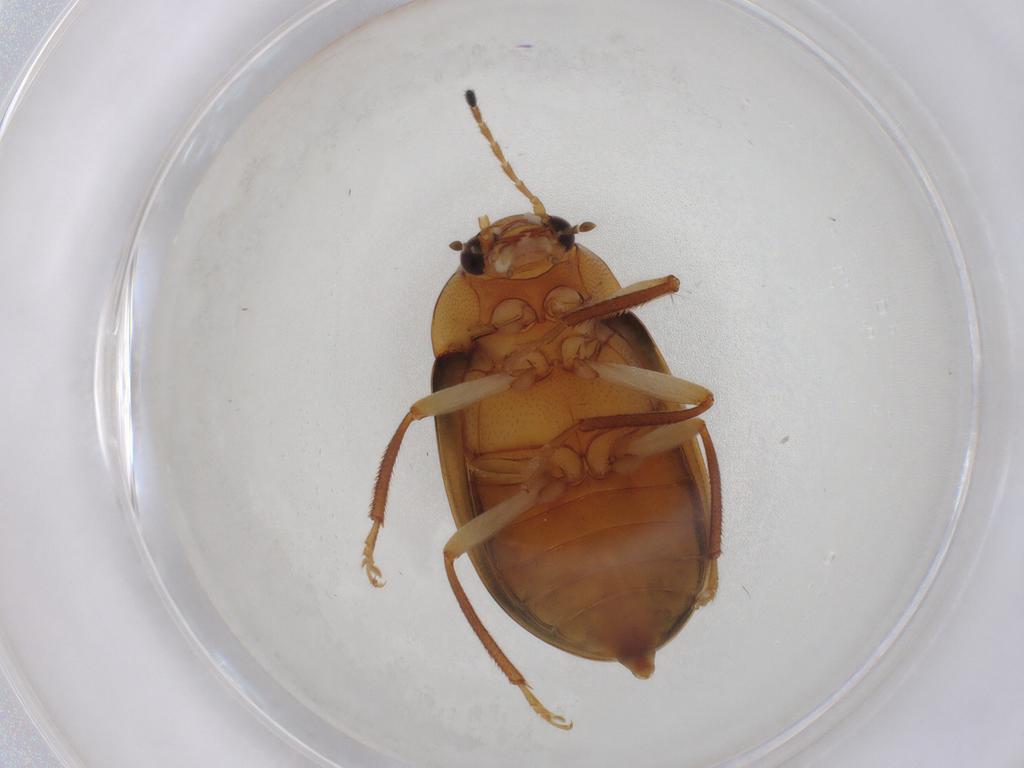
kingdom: Animalia
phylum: Arthropoda
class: Insecta
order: Coleoptera
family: Ptilodactylidae
